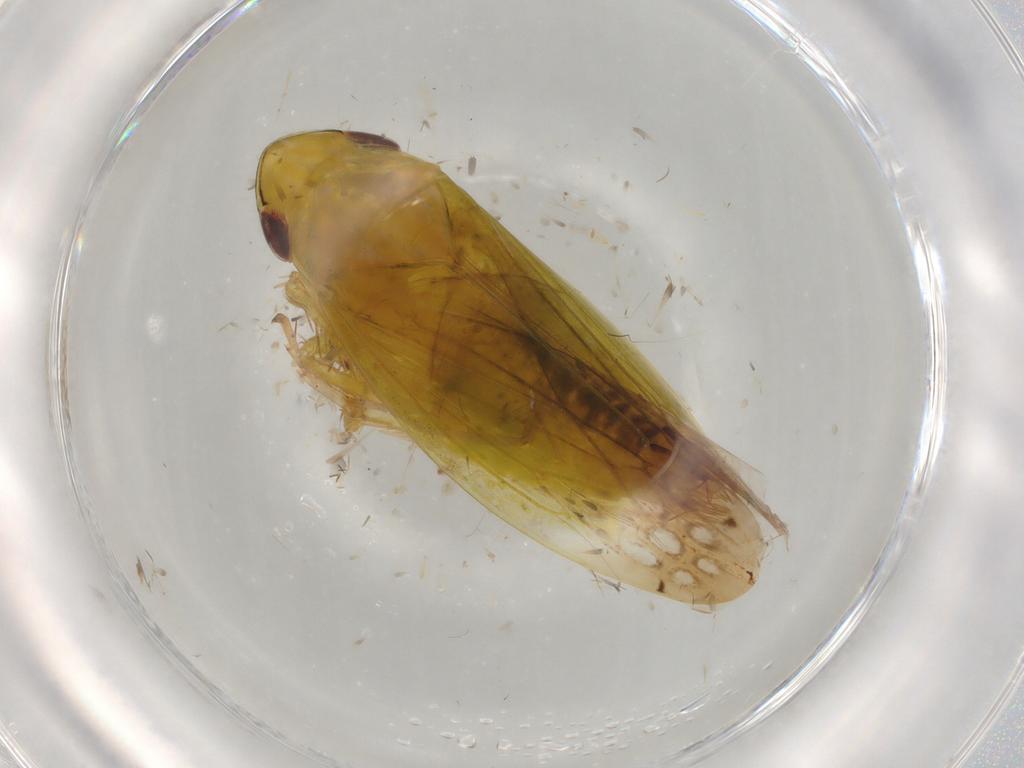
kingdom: Animalia
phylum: Arthropoda
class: Insecta
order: Hemiptera
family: Cicadellidae
